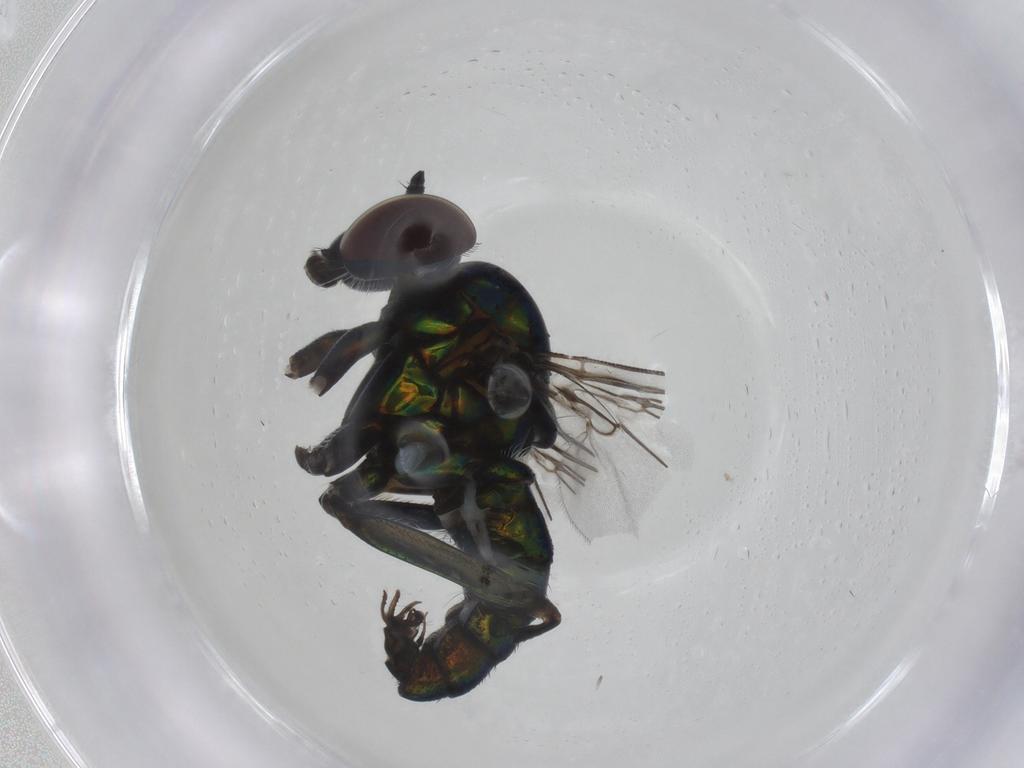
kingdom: Animalia
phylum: Arthropoda
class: Insecta
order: Diptera
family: Dolichopodidae
